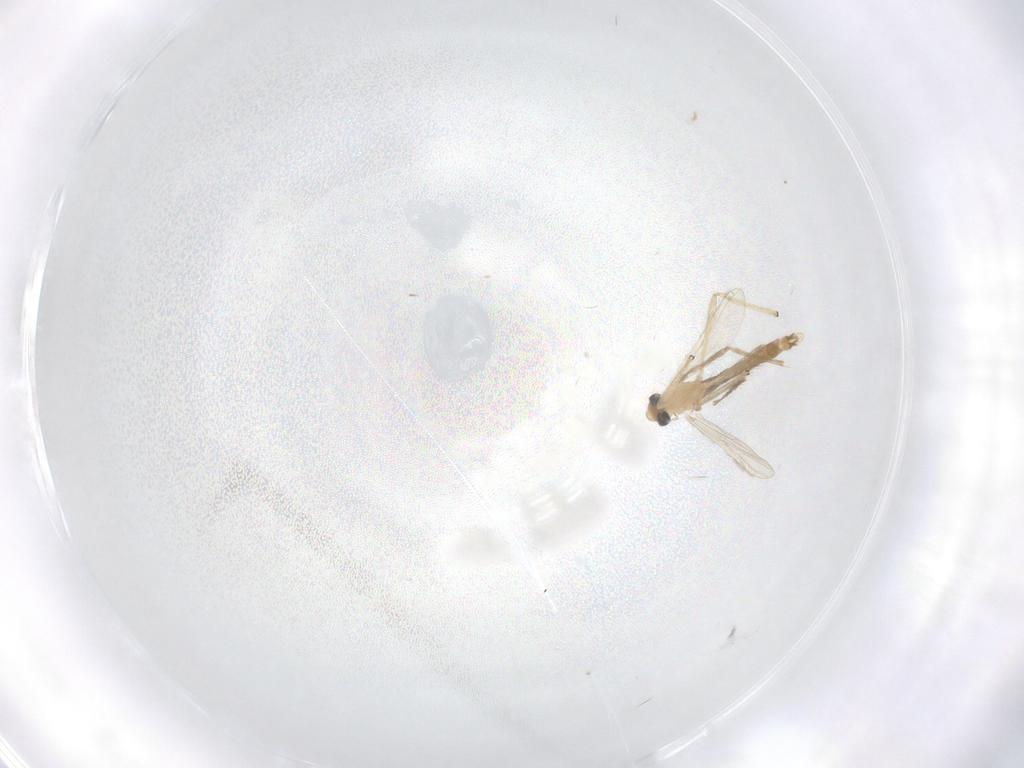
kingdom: Animalia
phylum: Arthropoda
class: Insecta
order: Diptera
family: Chironomidae
